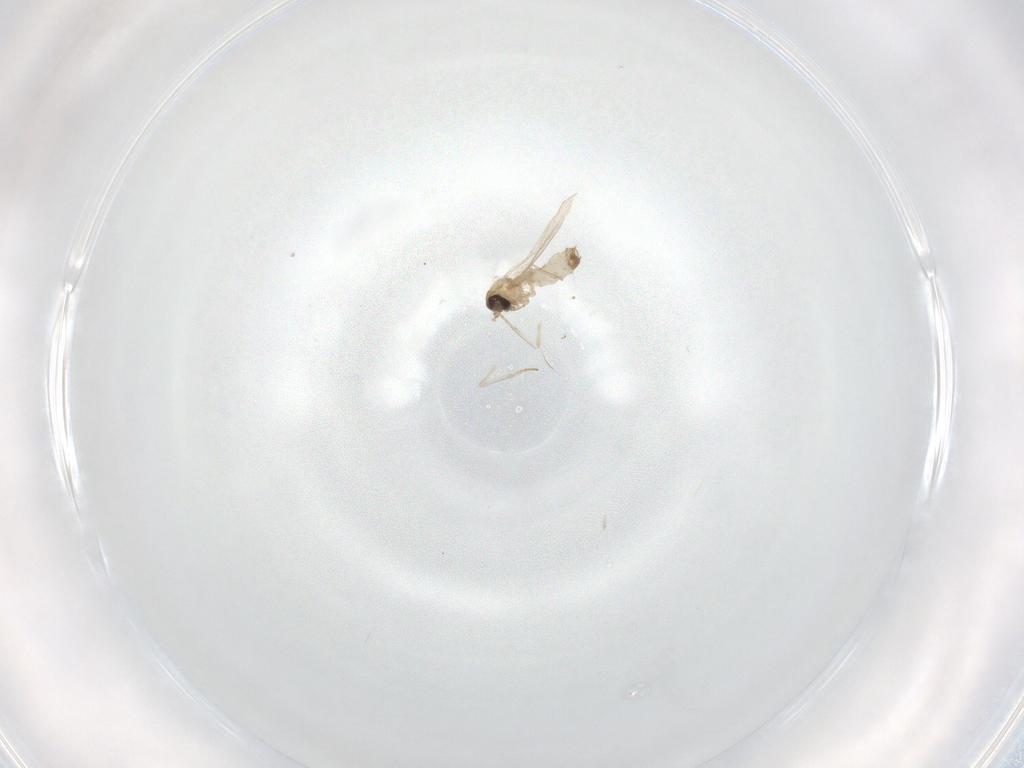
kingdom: Animalia
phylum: Arthropoda
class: Insecta
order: Diptera
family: Psychodidae
